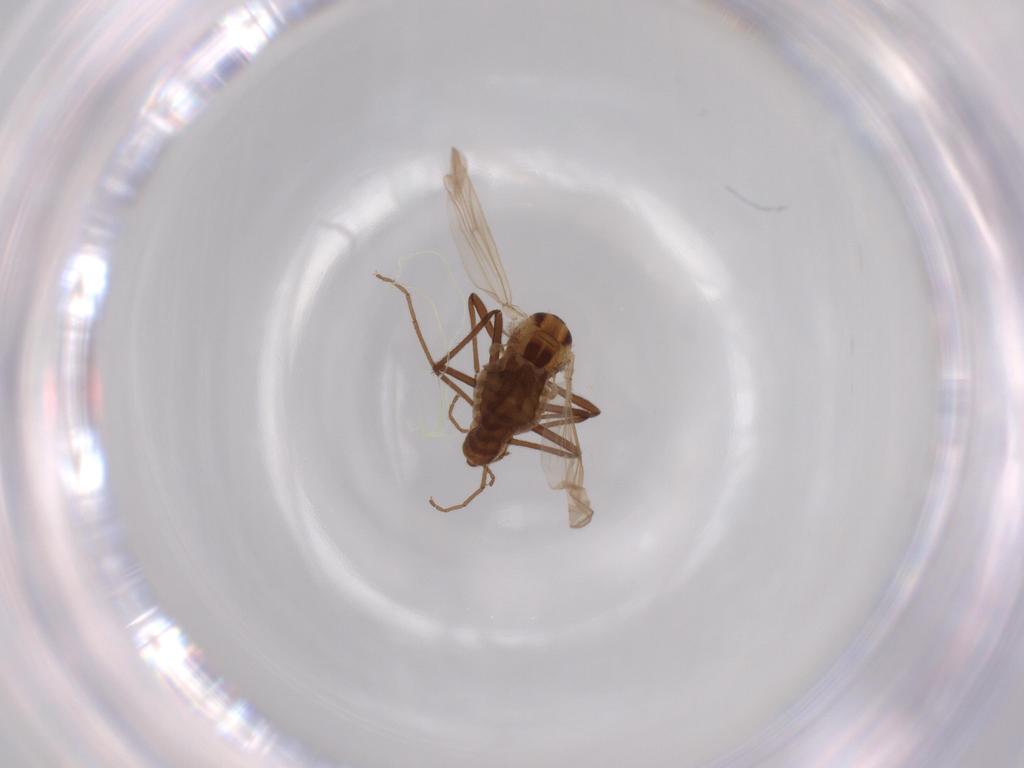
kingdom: Animalia
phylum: Arthropoda
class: Insecta
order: Diptera
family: Chironomidae
